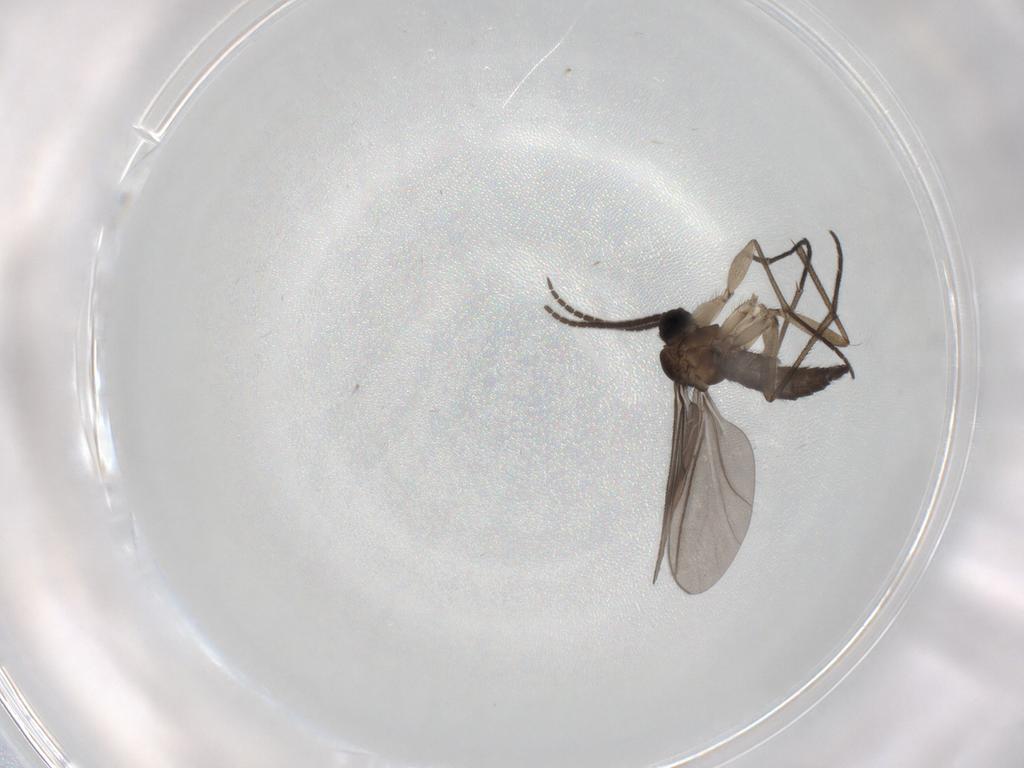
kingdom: Animalia
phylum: Arthropoda
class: Insecta
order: Diptera
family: Sciaridae
